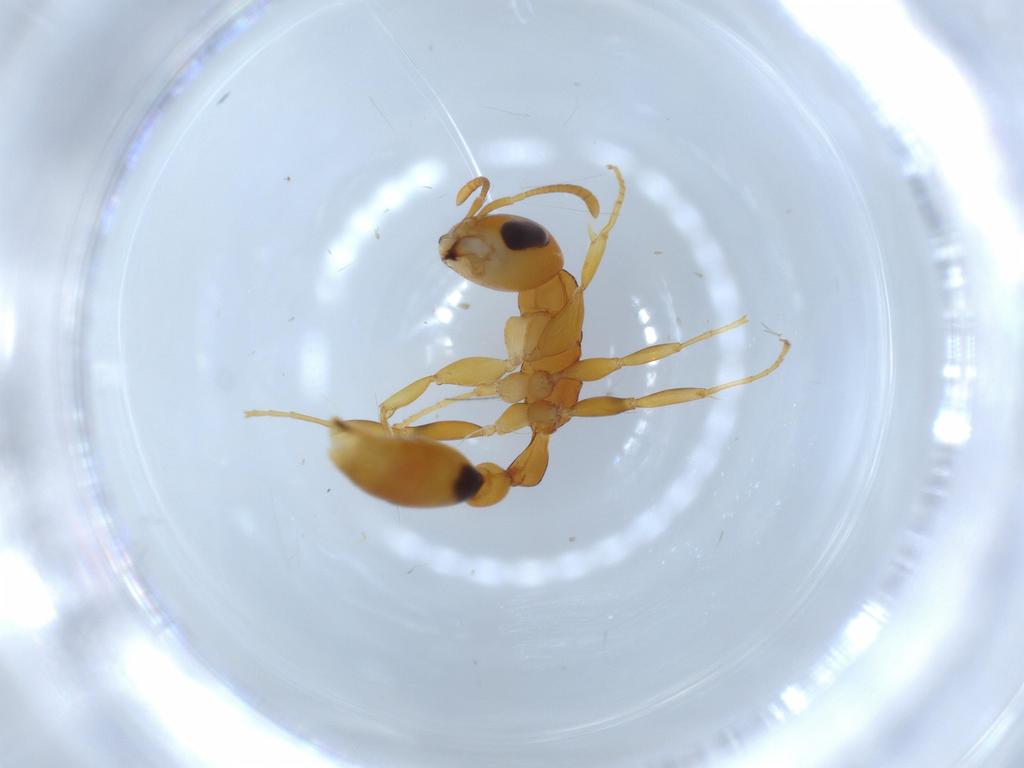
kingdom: Animalia
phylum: Arthropoda
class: Insecta
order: Hymenoptera
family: Formicidae
